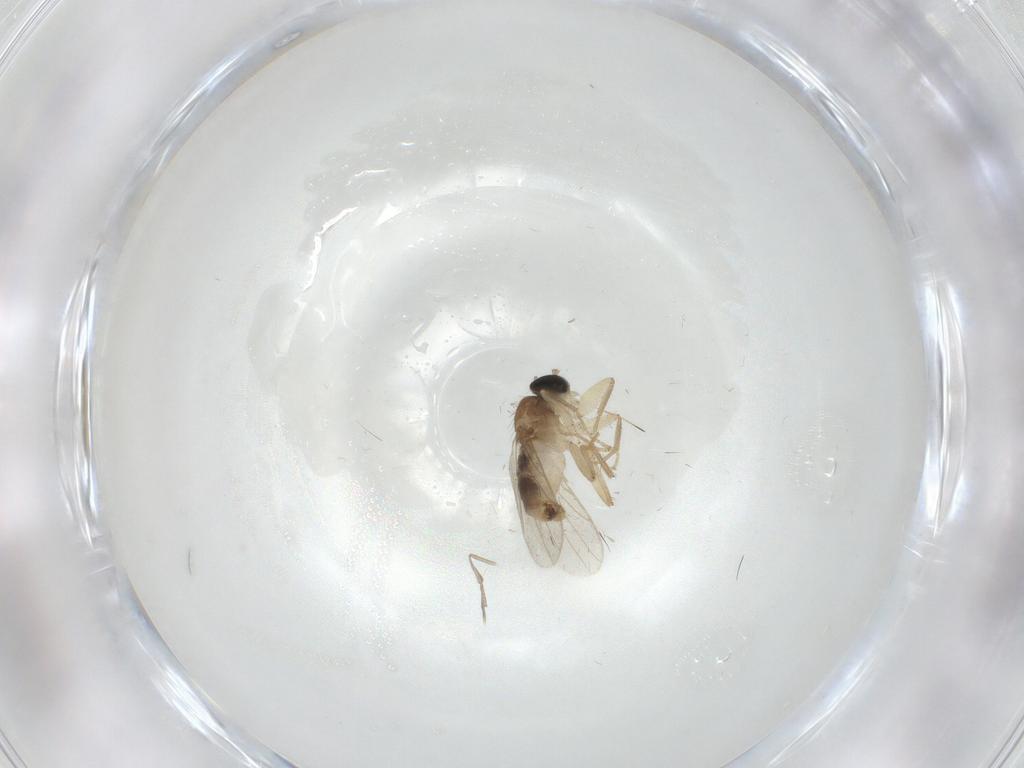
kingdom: Animalia
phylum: Arthropoda
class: Insecta
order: Diptera
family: Hybotidae
